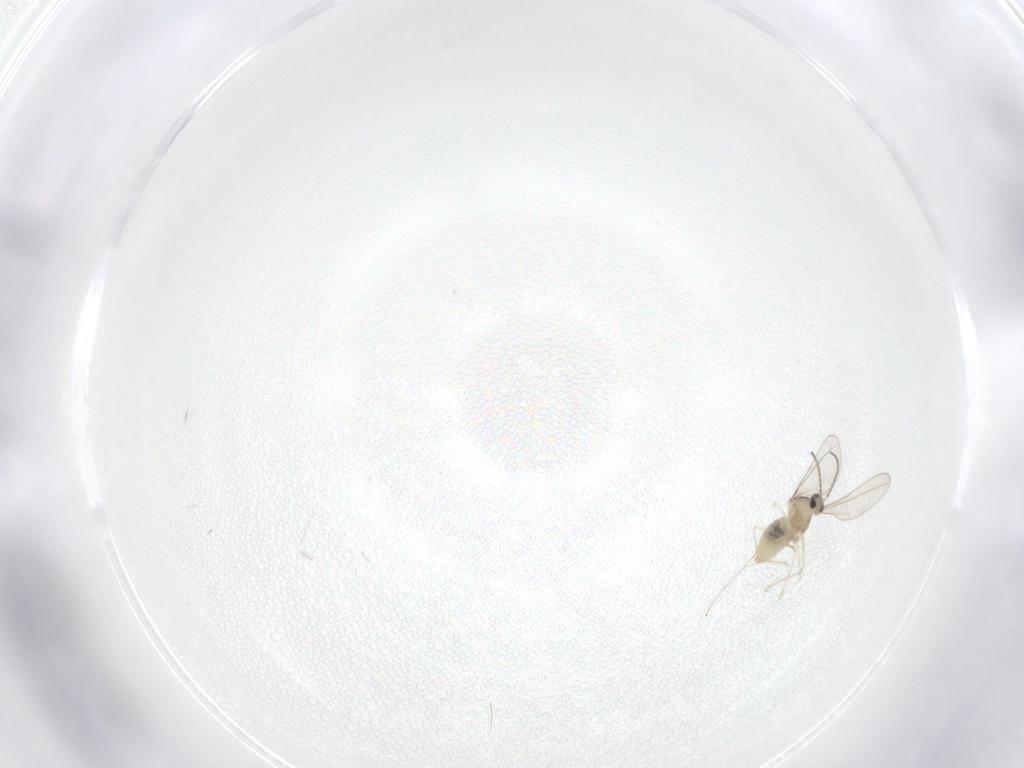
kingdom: Animalia
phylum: Arthropoda
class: Insecta
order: Diptera
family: Cecidomyiidae
